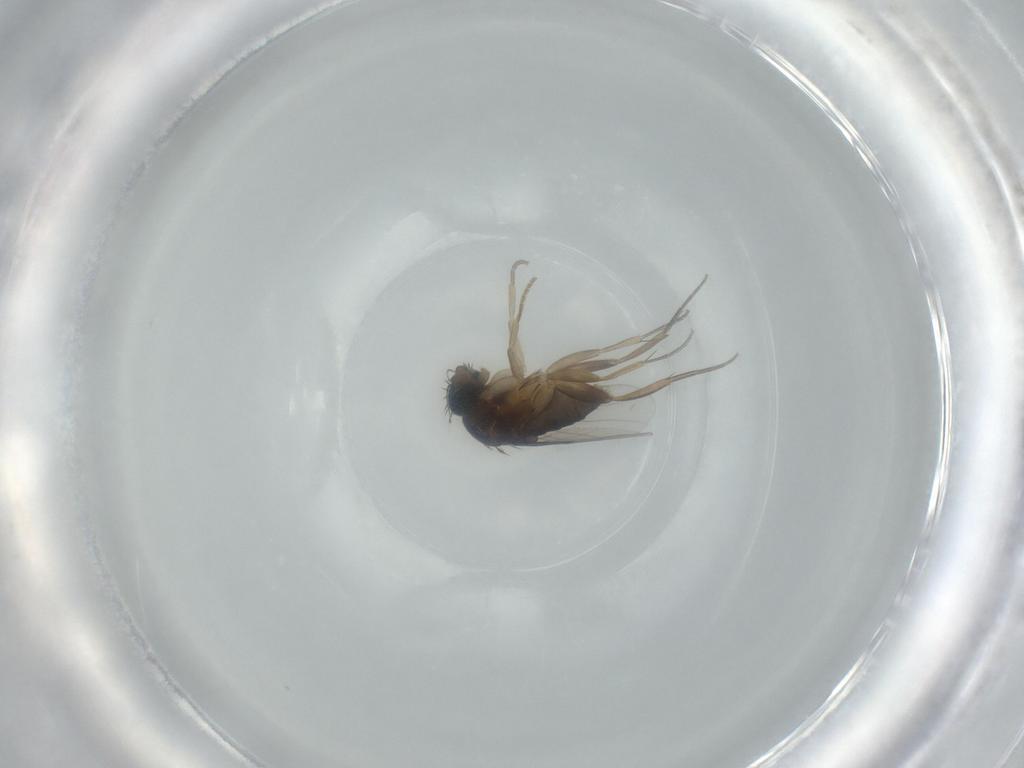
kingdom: Animalia
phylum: Arthropoda
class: Insecta
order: Diptera
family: Phoridae
